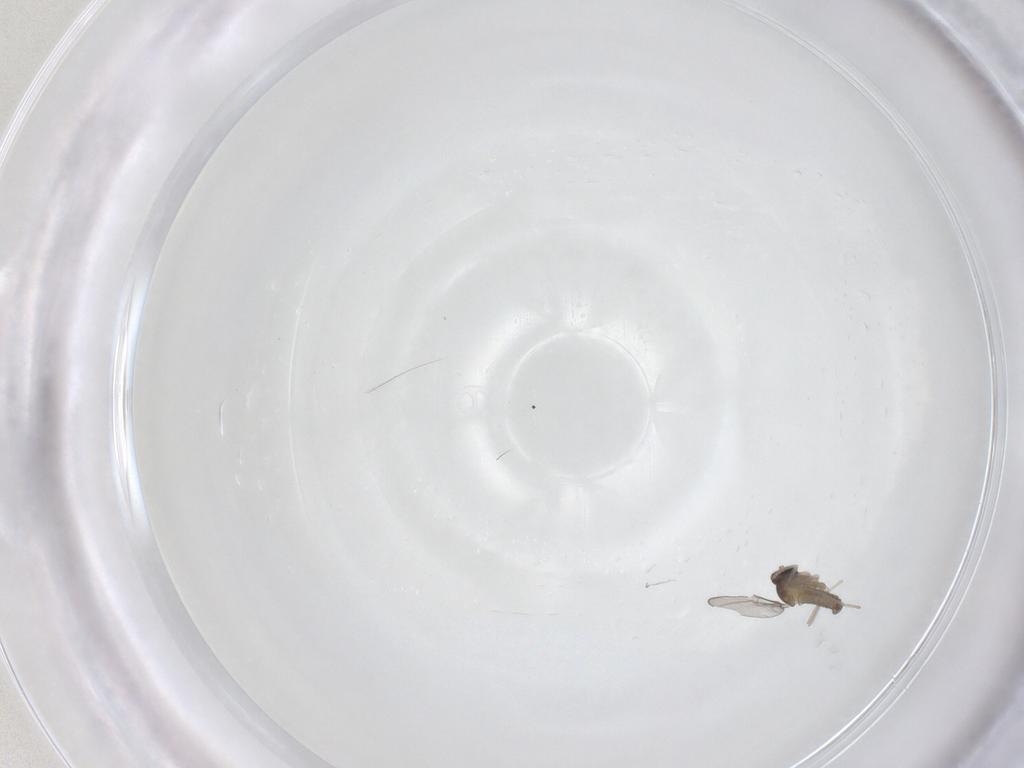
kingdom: Animalia
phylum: Arthropoda
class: Insecta
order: Diptera
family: Cecidomyiidae
